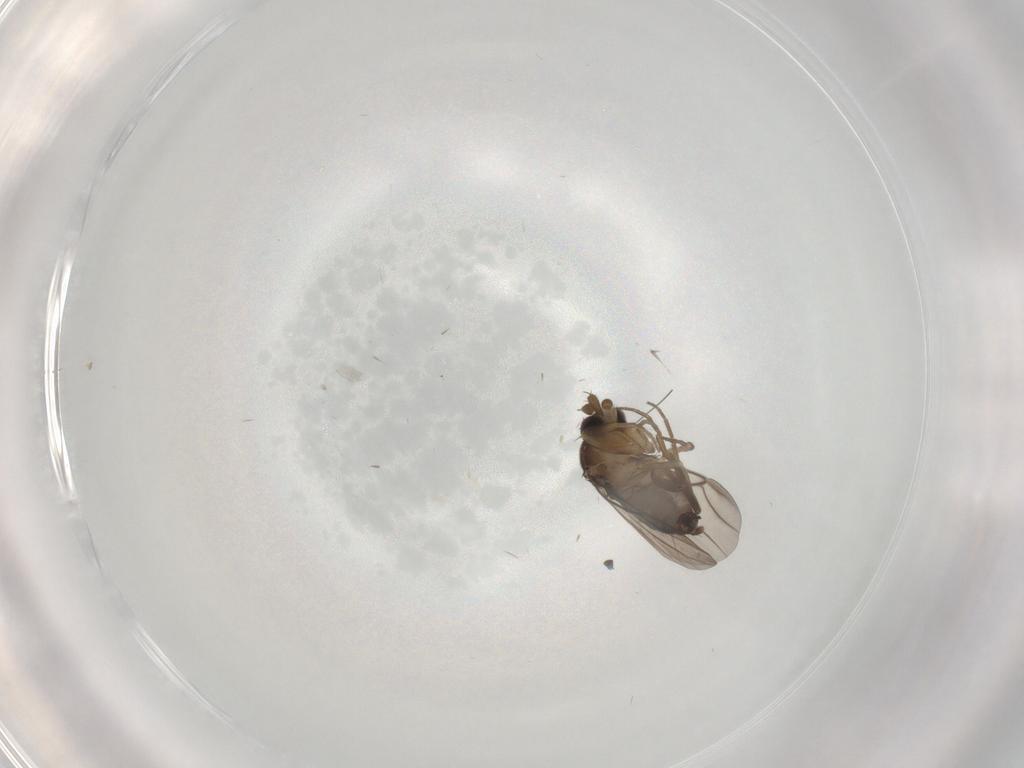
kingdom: Animalia
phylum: Arthropoda
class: Insecta
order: Diptera
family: Phoridae
